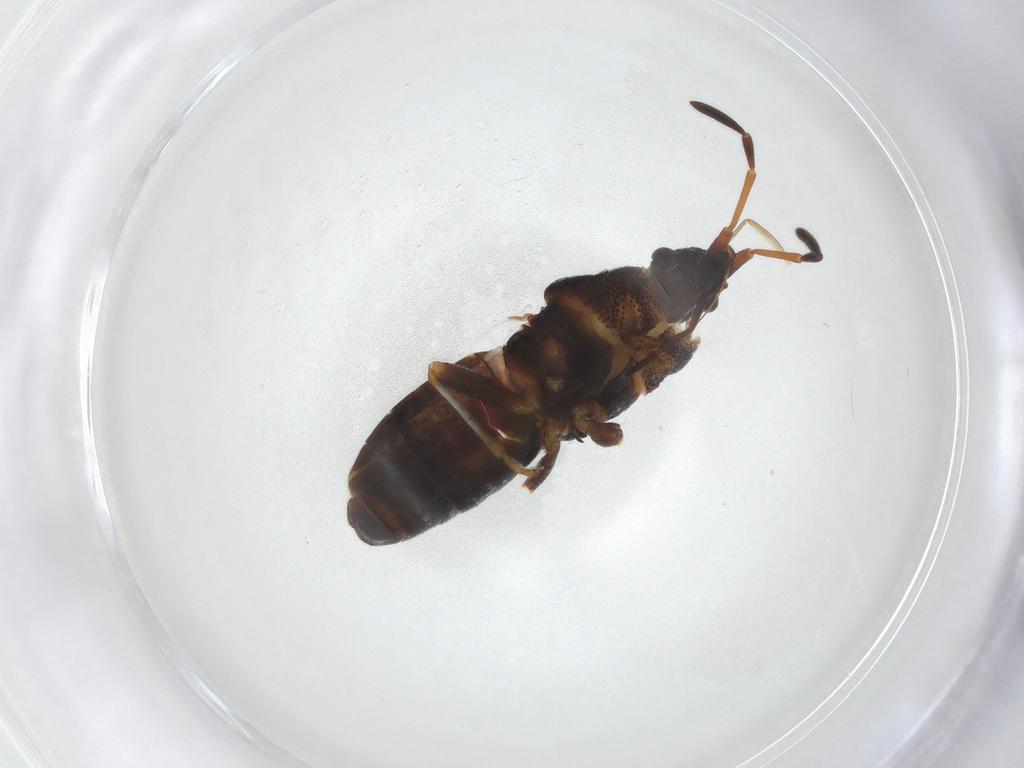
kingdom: Animalia
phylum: Arthropoda
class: Insecta
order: Hemiptera
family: Oxycarenidae
